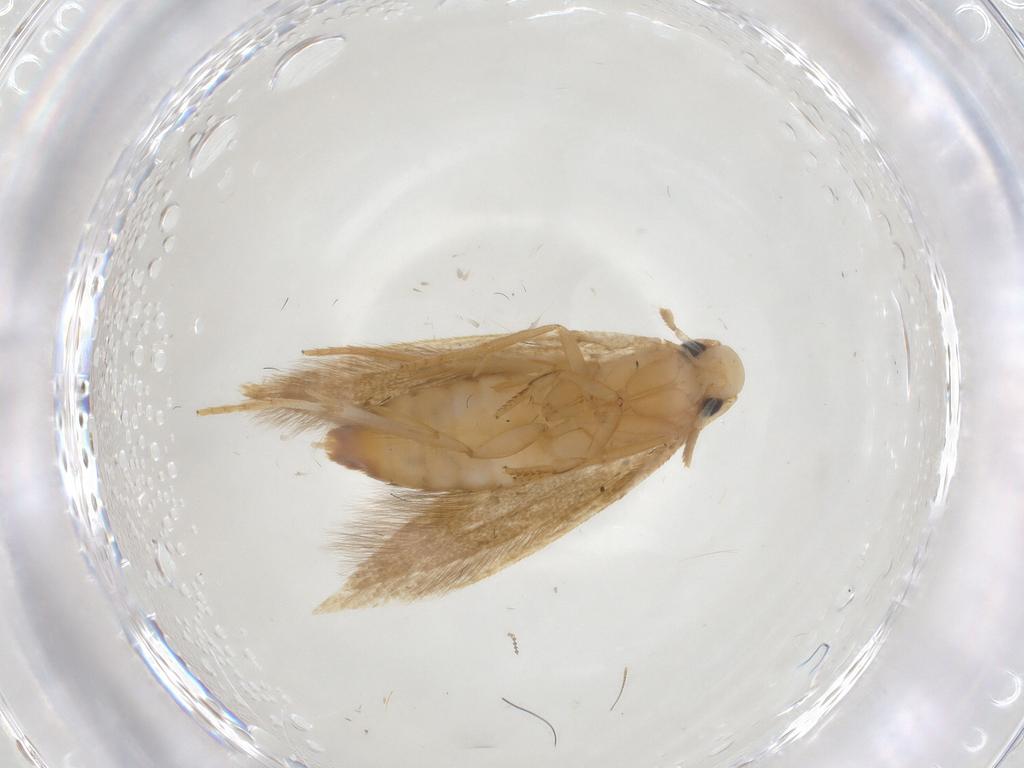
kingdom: Animalia
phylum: Arthropoda
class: Insecta
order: Lepidoptera
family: Tineidae
